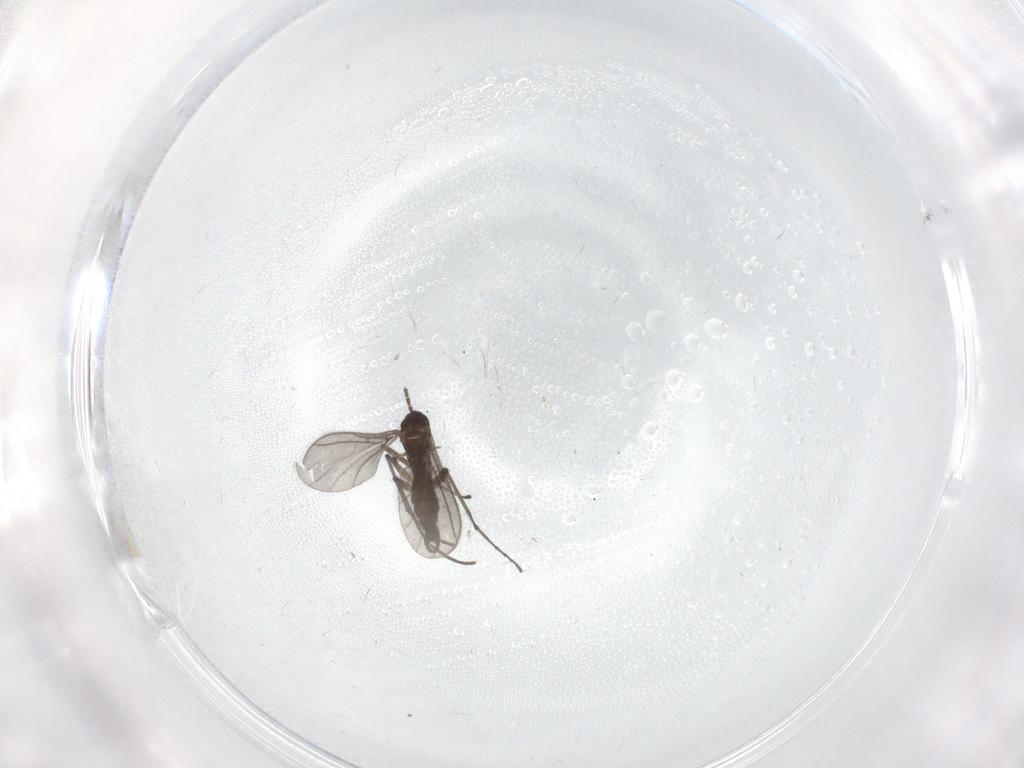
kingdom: Animalia
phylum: Arthropoda
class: Insecta
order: Diptera
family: Sciaridae
